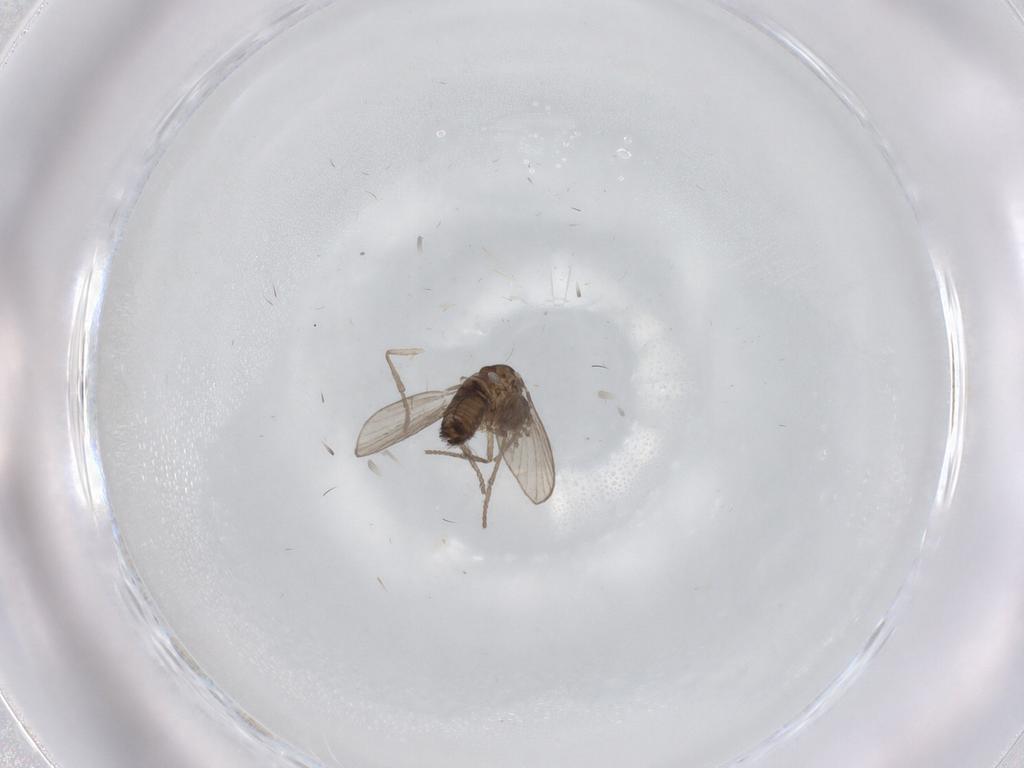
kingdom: Animalia
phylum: Arthropoda
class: Insecta
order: Diptera
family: Psychodidae
